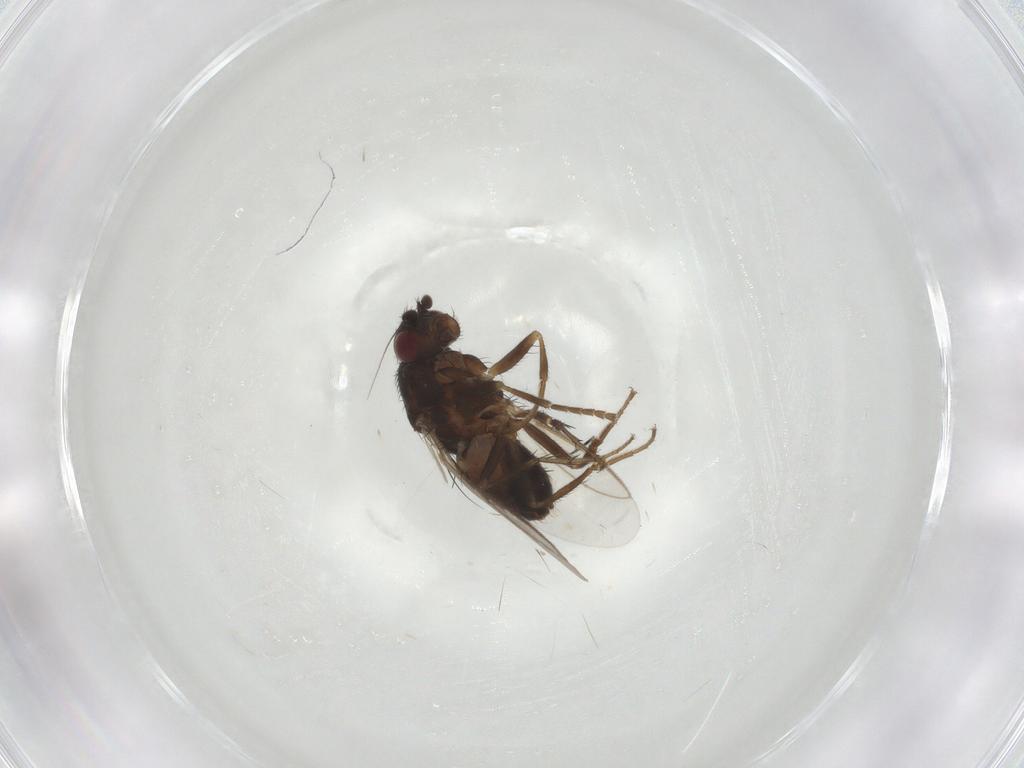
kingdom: Animalia
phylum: Arthropoda
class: Insecta
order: Diptera
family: Sphaeroceridae
